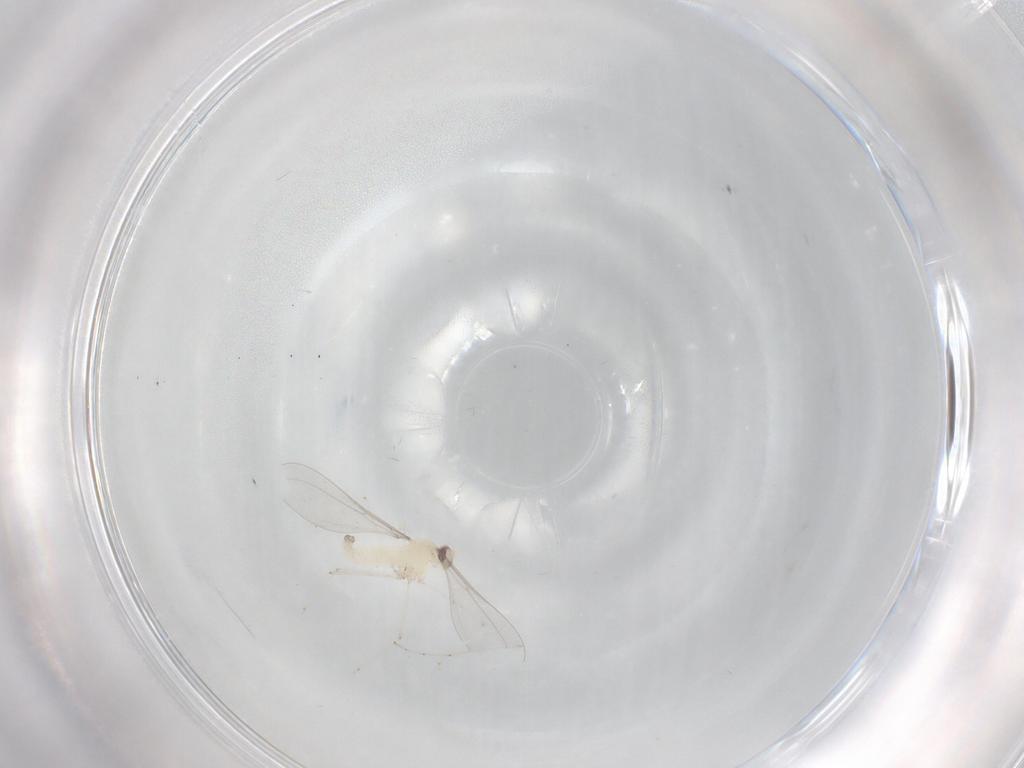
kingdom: Animalia
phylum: Arthropoda
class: Insecta
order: Diptera
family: Cecidomyiidae
